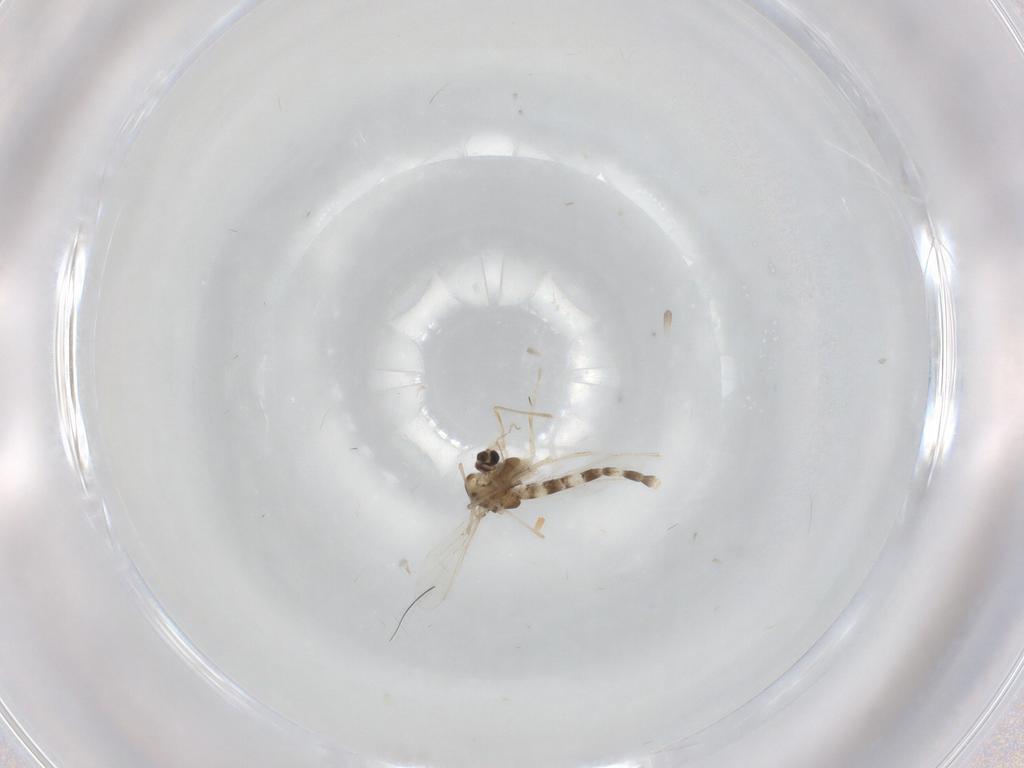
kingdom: Animalia
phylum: Arthropoda
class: Insecta
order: Diptera
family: Chironomidae
